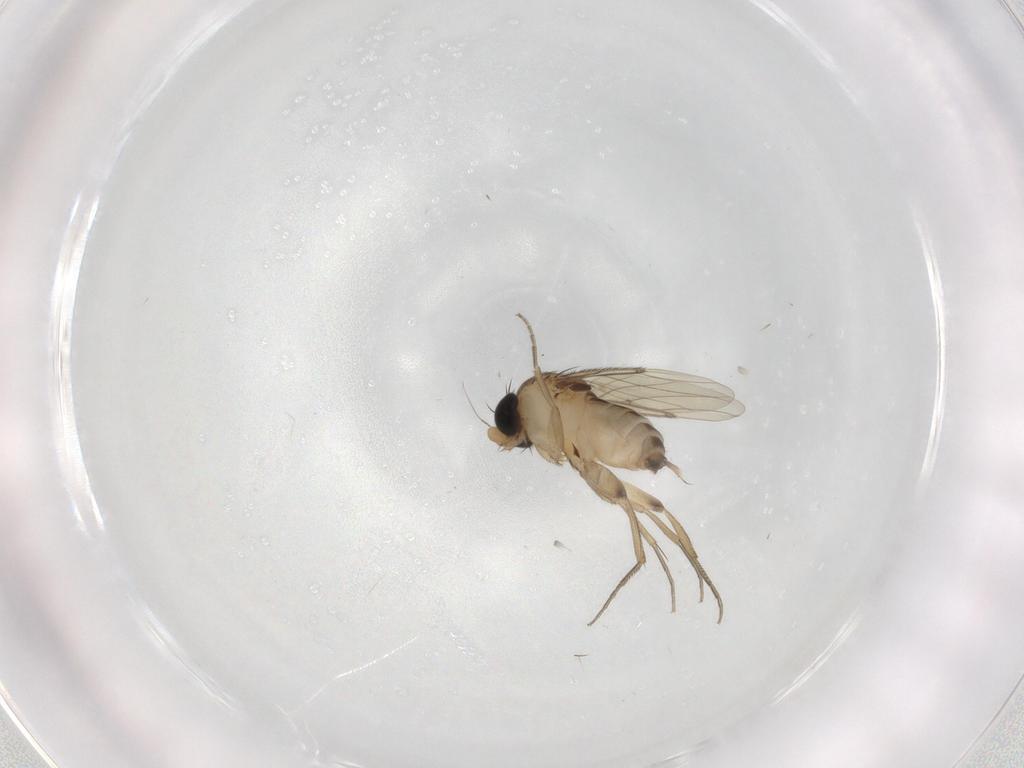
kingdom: Animalia
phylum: Arthropoda
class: Insecta
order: Diptera
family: Phoridae
